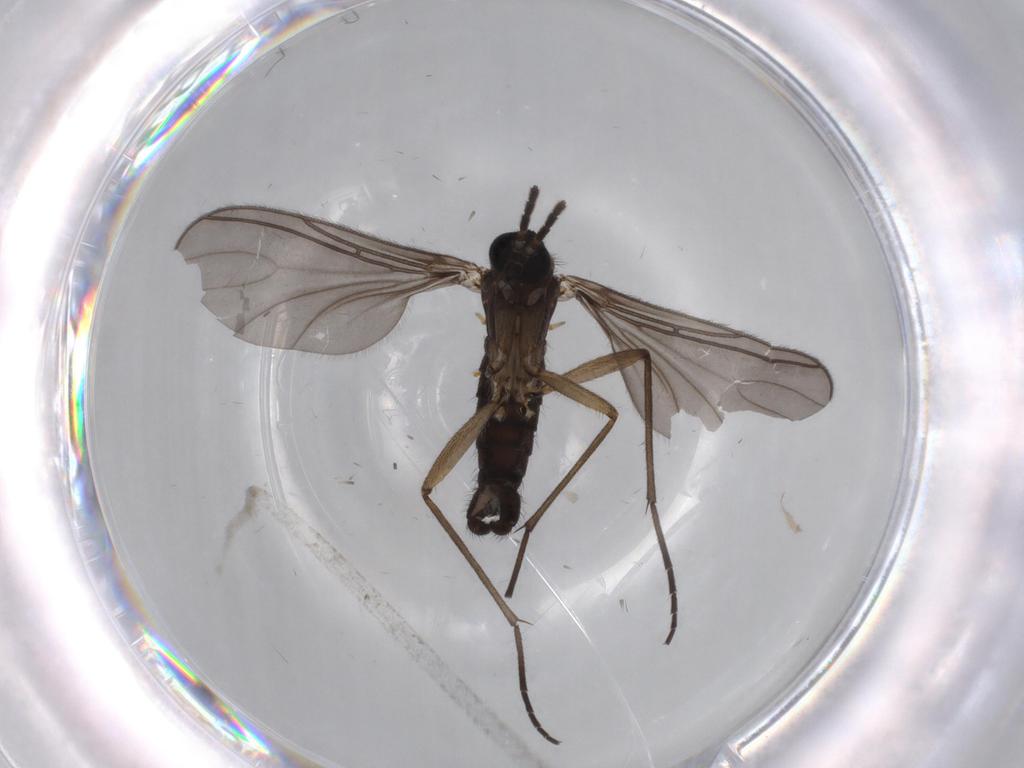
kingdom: Animalia
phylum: Arthropoda
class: Insecta
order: Diptera
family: Sciaridae
